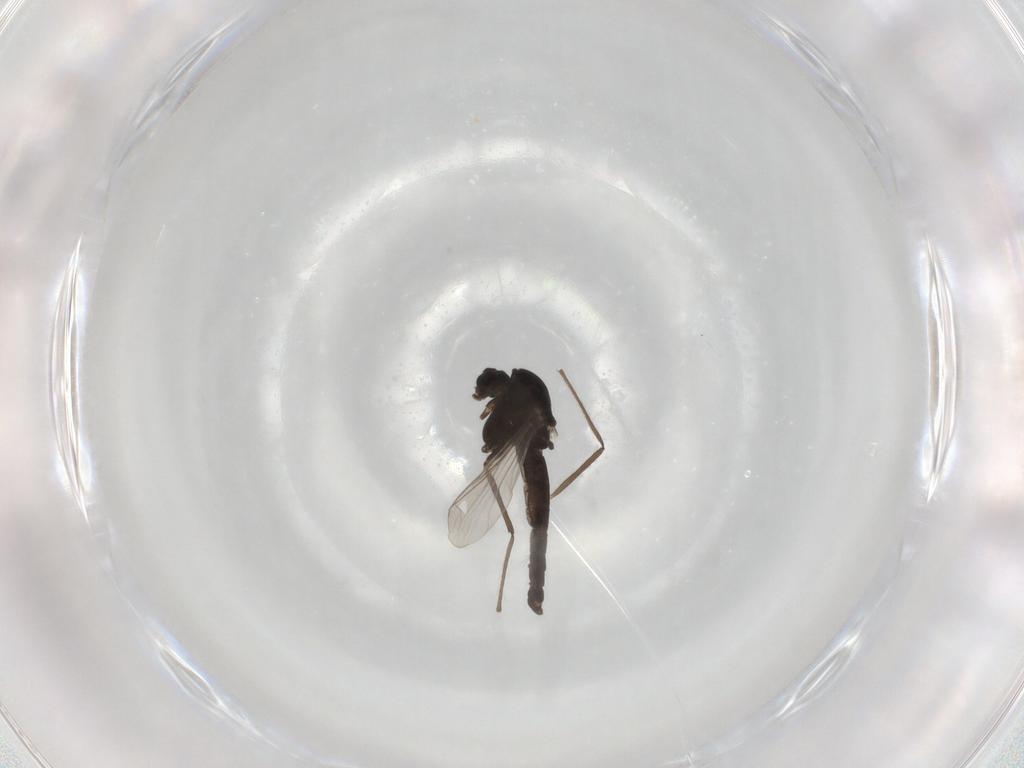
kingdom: Animalia
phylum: Arthropoda
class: Insecta
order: Diptera
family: Chironomidae
